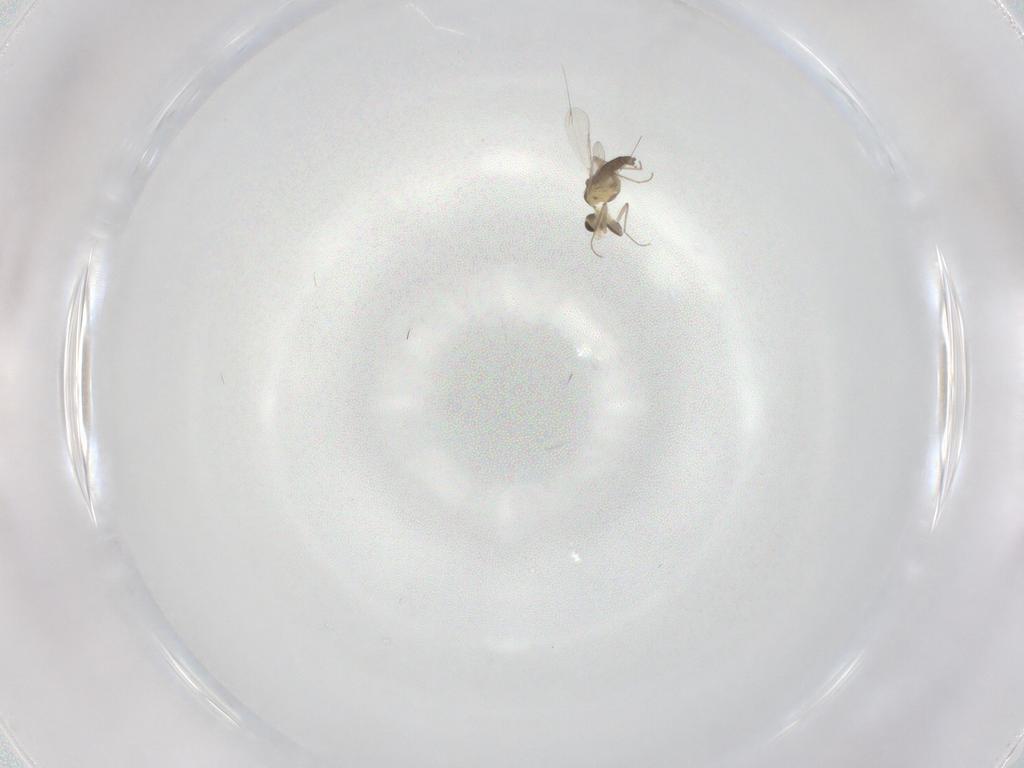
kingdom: Animalia
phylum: Arthropoda
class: Insecta
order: Diptera
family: Chironomidae
